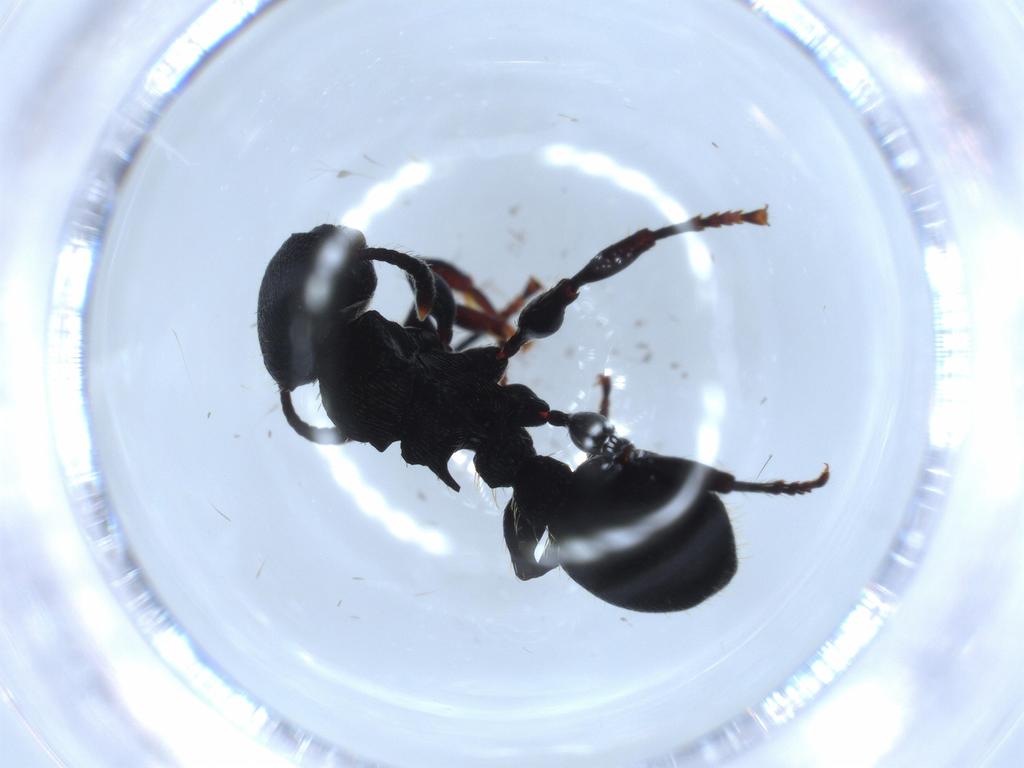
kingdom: Animalia
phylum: Arthropoda
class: Insecta
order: Hymenoptera
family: Formicidae
